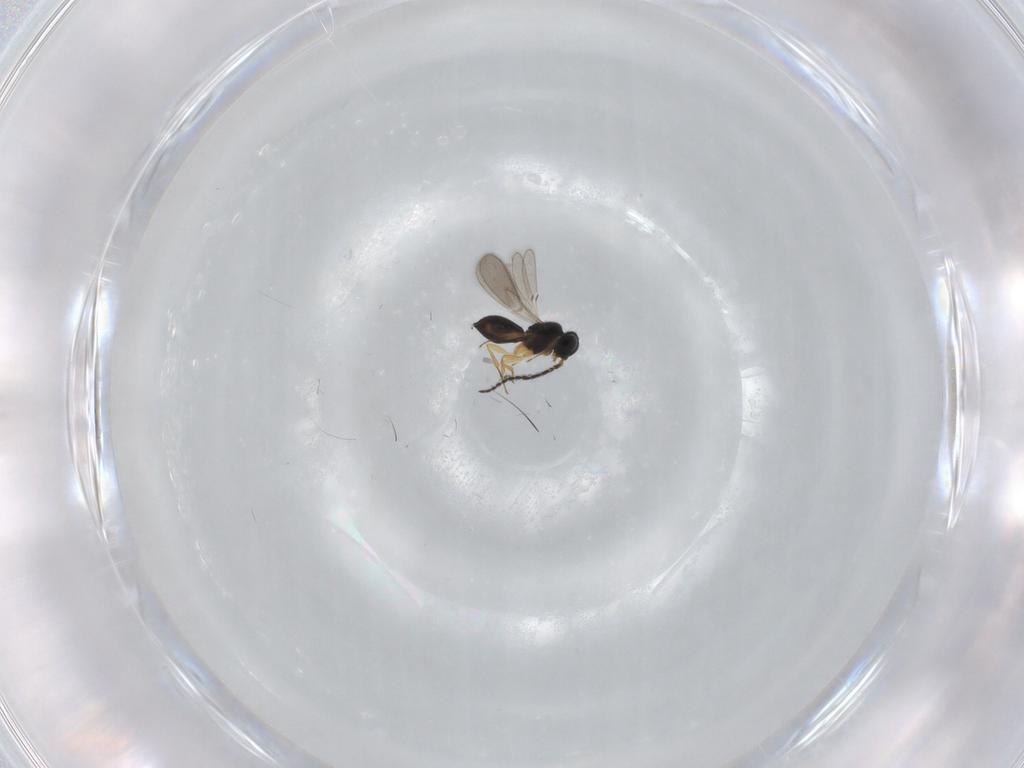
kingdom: Animalia
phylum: Arthropoda
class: Insecta
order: Hymenoptera
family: Scelionidae
